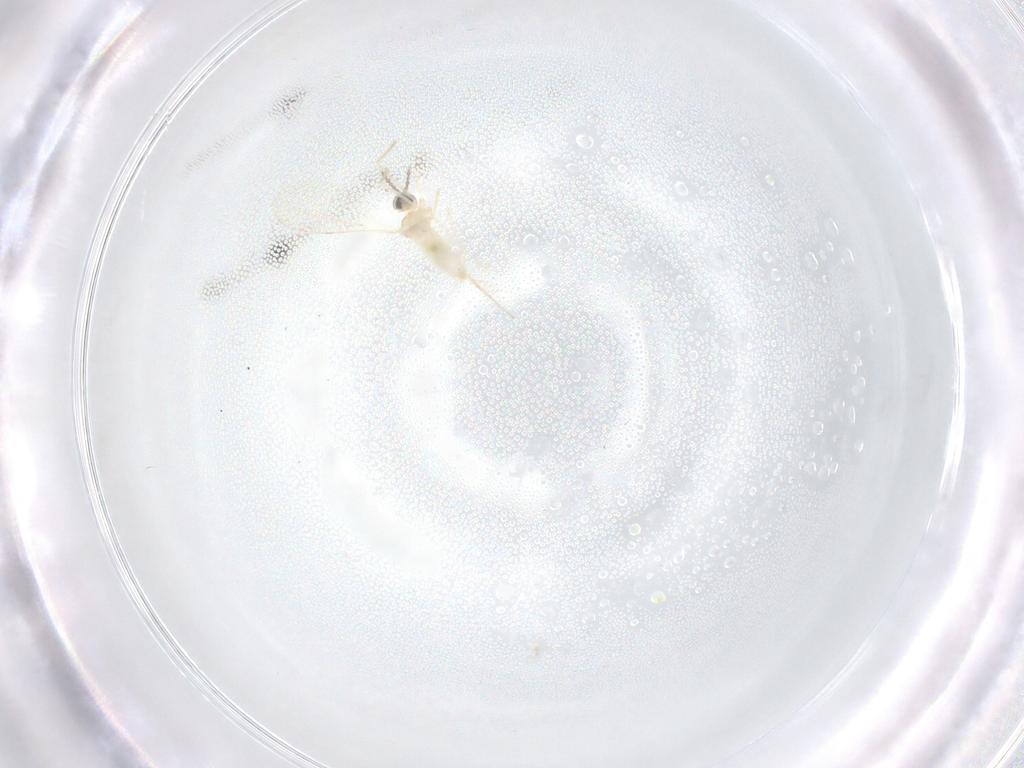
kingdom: Animalia
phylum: Arthropoda
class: Insecta
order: Diptera
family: Cecidomyiidae
